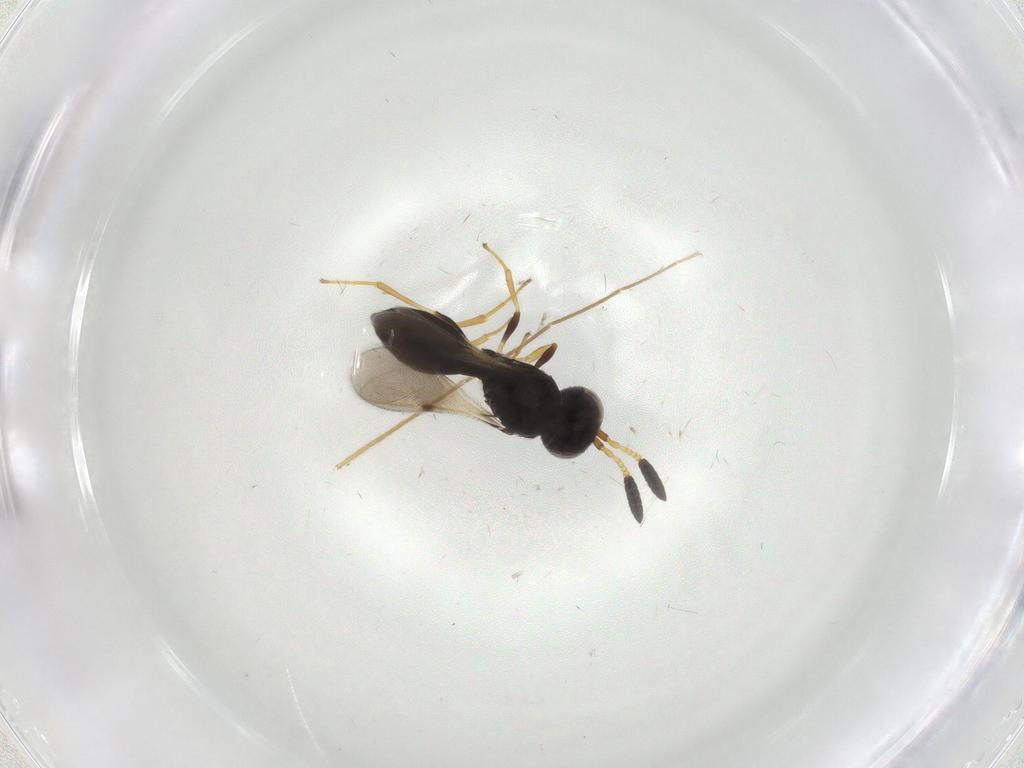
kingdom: Animalia
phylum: Arthropoda
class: Insecta
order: Hymenoptera
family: Scelionidae
